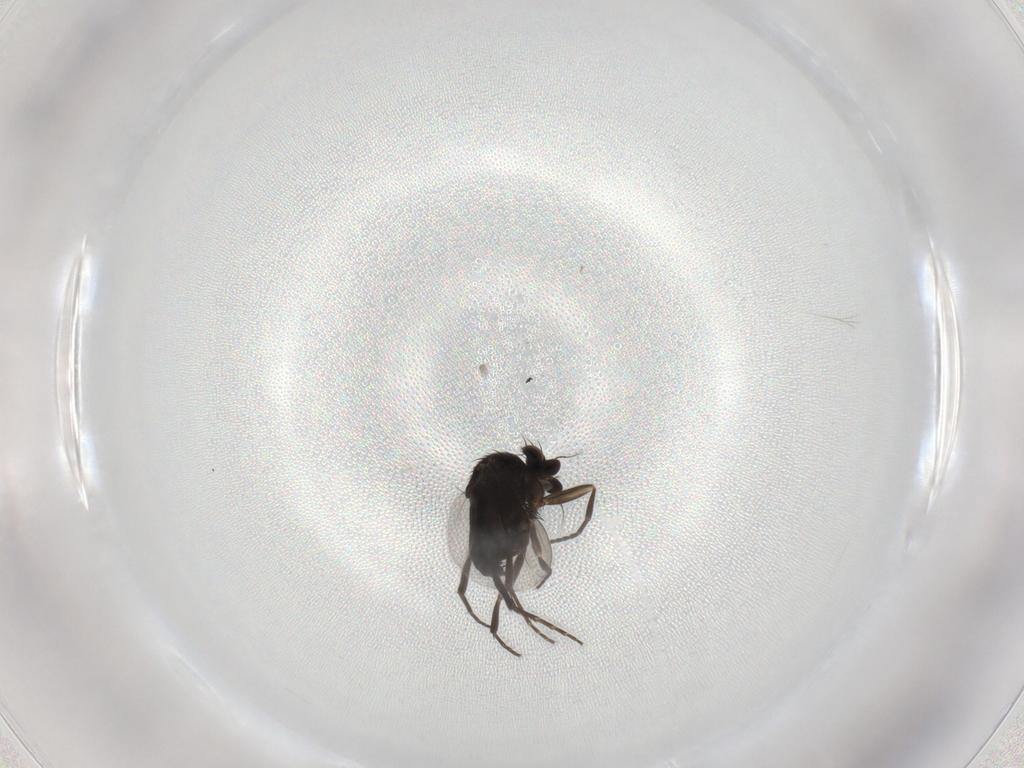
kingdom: Animalia
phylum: Arthropoda
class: Insecta
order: Diptera
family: Phoridae
